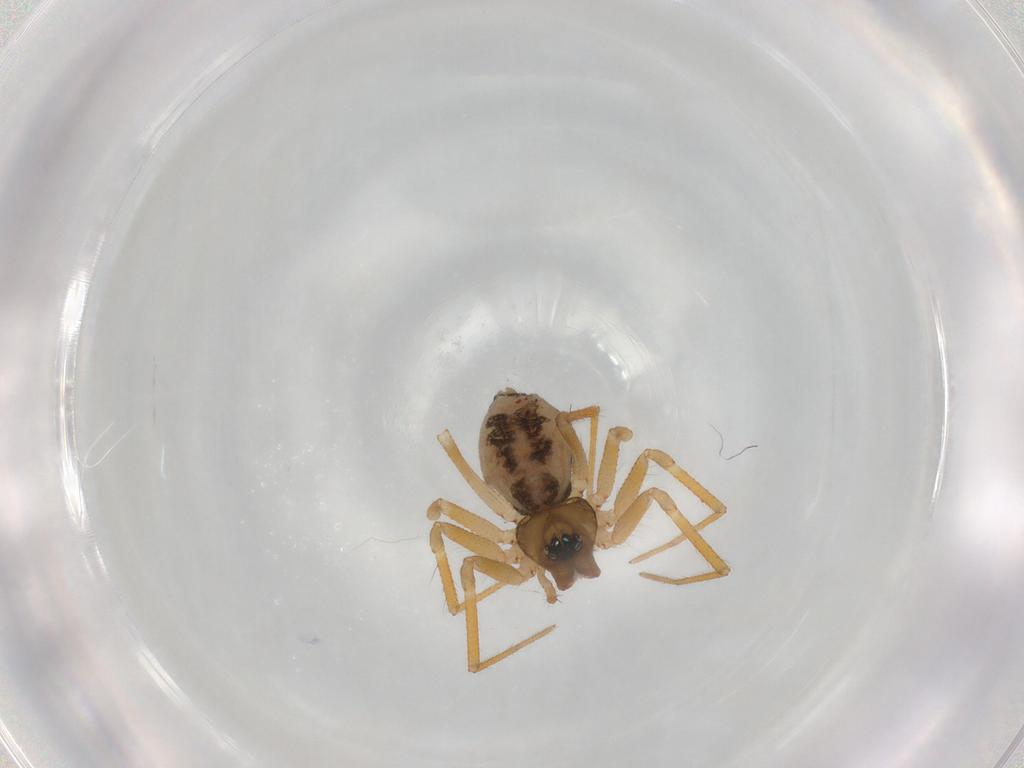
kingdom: Animalia
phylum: Arthropoda
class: Arachnida
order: Araneae
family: Linyphiidae
